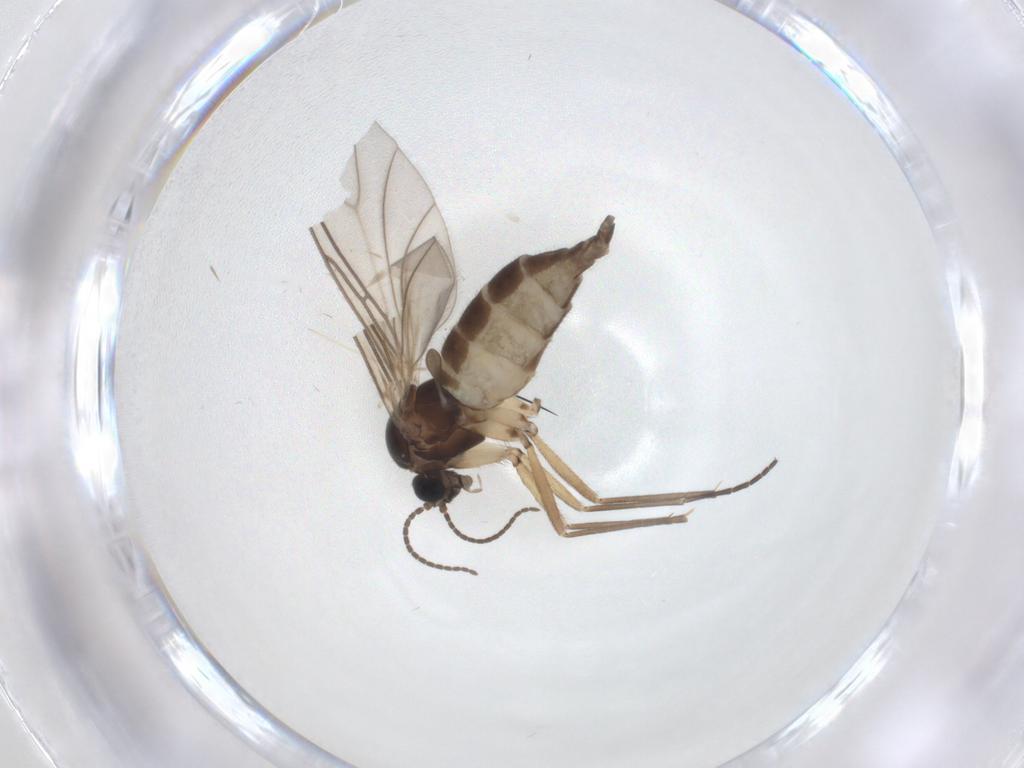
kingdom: Animalia
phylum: Arthropoda
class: Insecta
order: Diptera
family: Sciaridae
